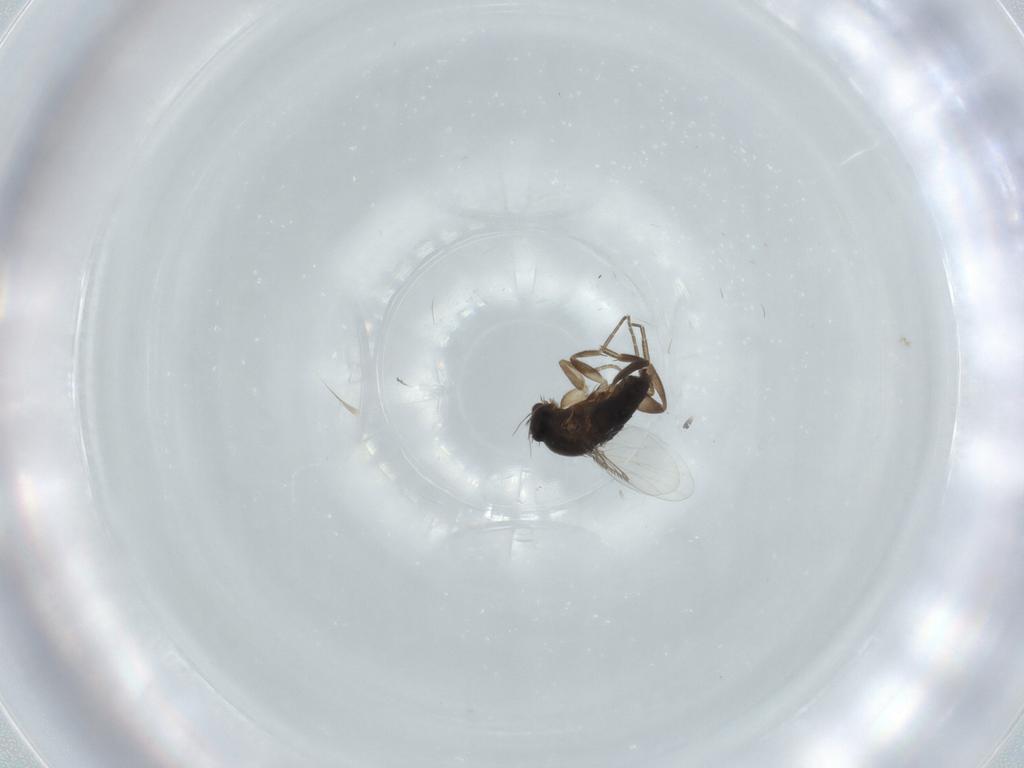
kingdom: Animalia
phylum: Arthropoda
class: Insecta
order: Diptera
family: Phoridae
